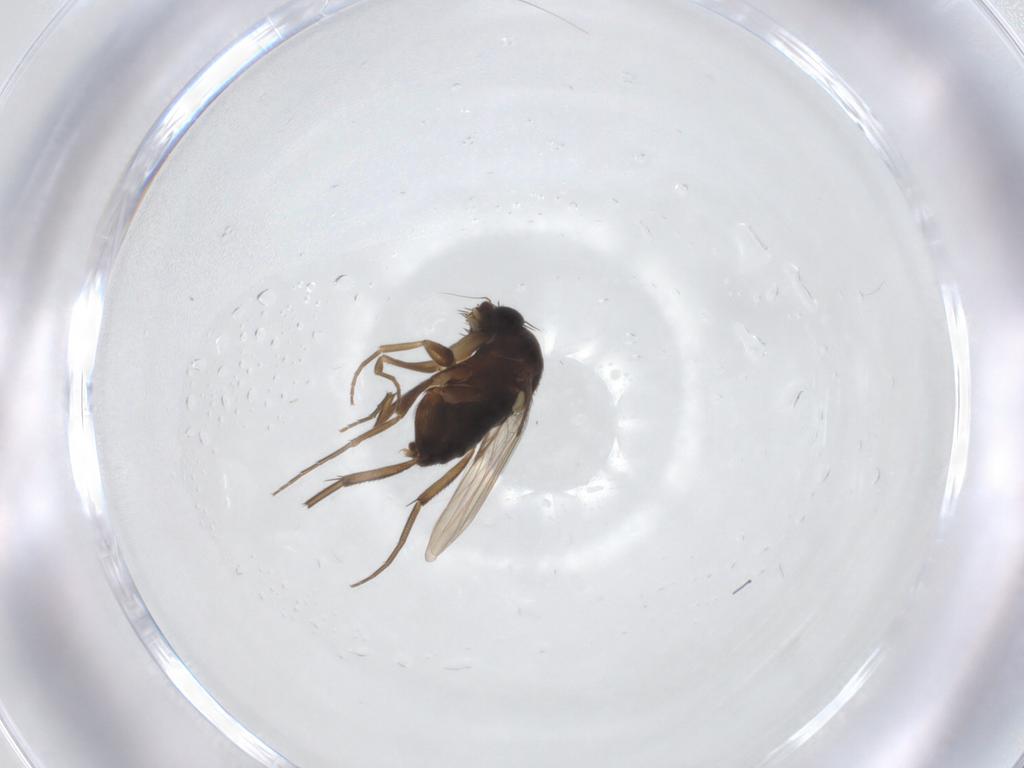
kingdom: Animalia
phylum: Arthropoda
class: Insecta
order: Diptera
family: Phoridae
